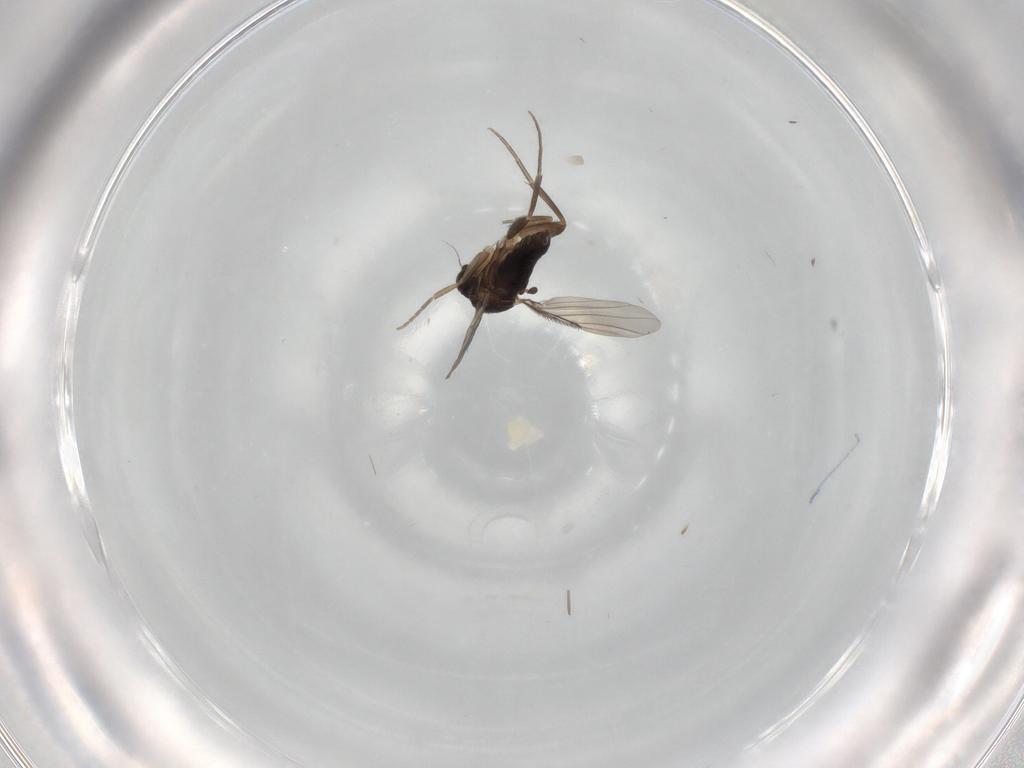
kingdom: Animalia
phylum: Arthropoda
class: Insecta
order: Diptera
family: Phoridae
